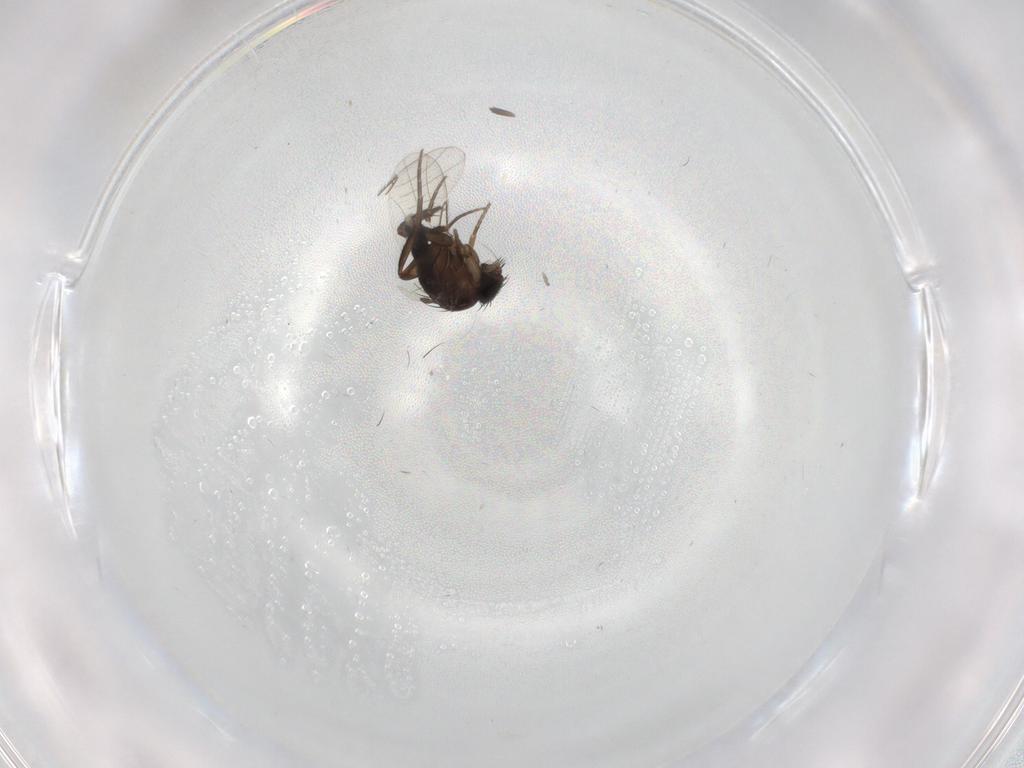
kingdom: Animalia
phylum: Arthropoda
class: Insecta
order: Diptera
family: Phoridae
